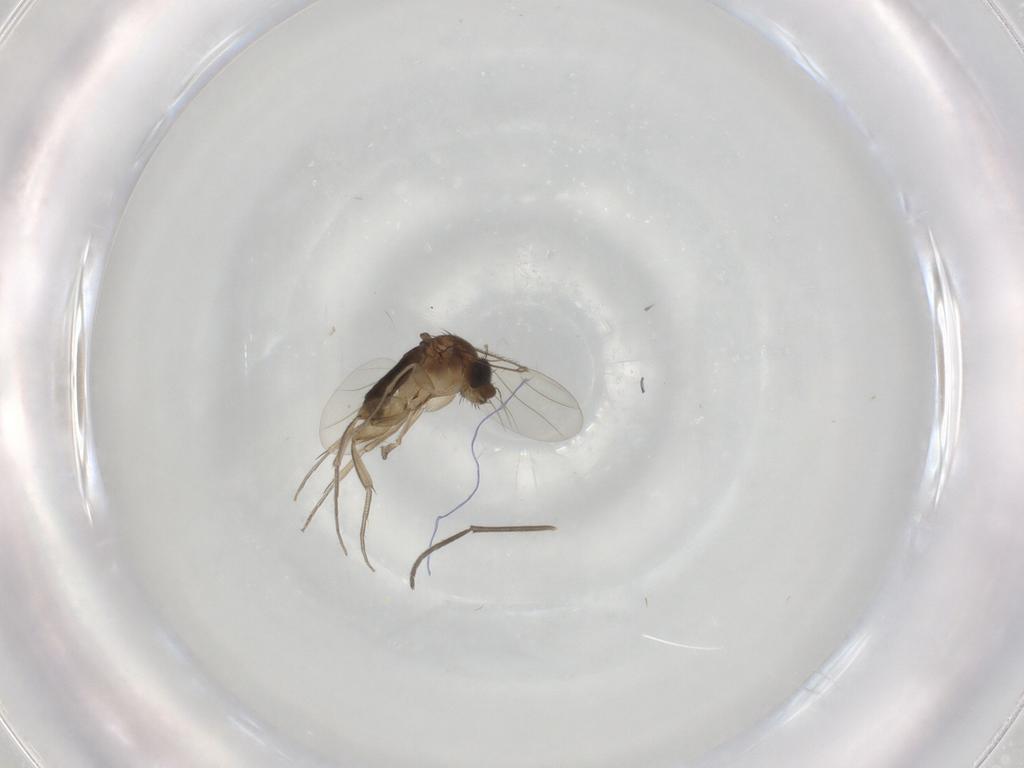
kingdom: Animalia
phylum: Arthropoda
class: Insecta
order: Diptera
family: Phoridae
